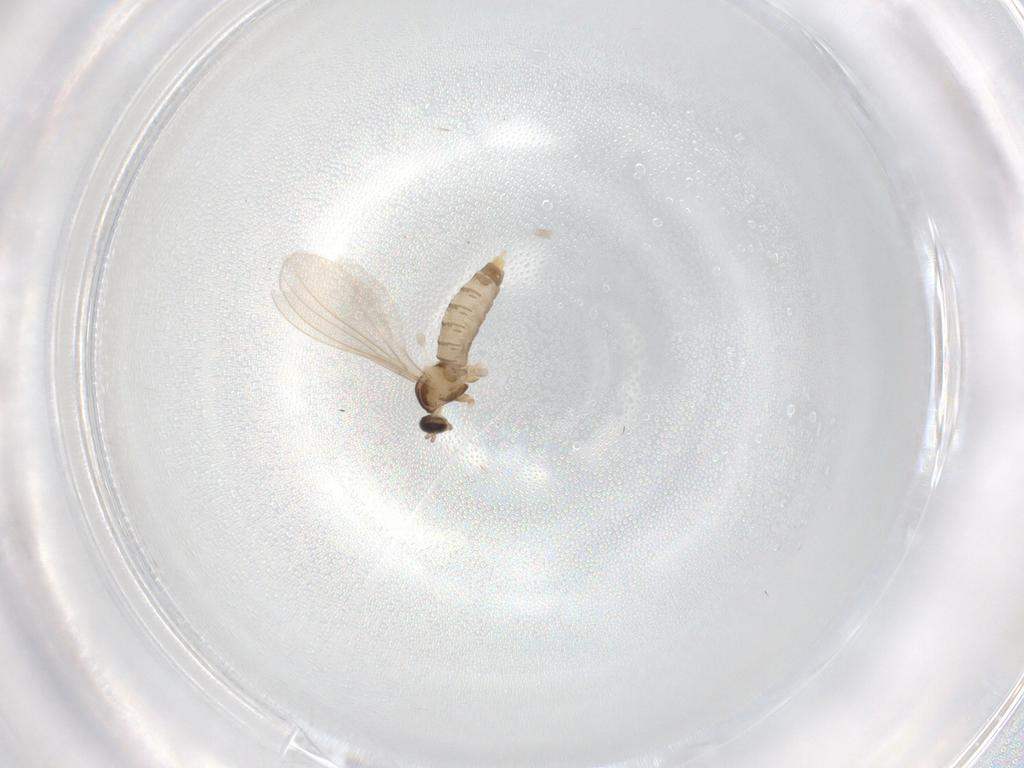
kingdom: Animalia
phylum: Arthropoda
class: Insecta
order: Diptera
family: Cecidomyiidae
